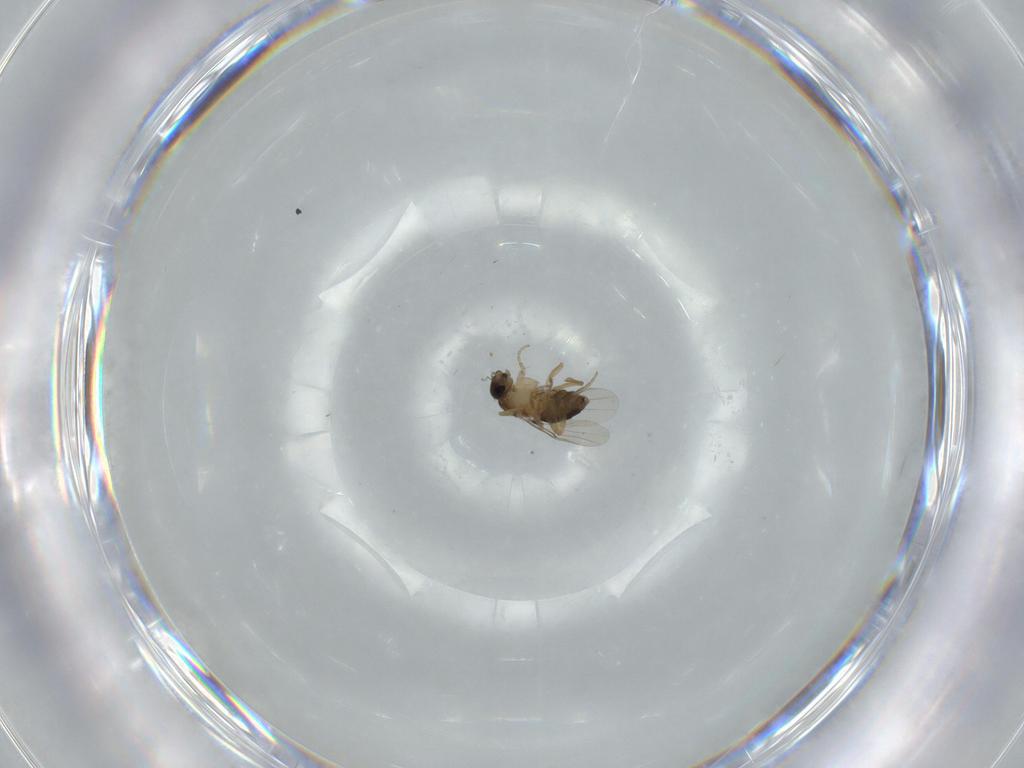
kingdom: Animalia
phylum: Arthropoda
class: Insecta
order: Diptera
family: Phoridae
